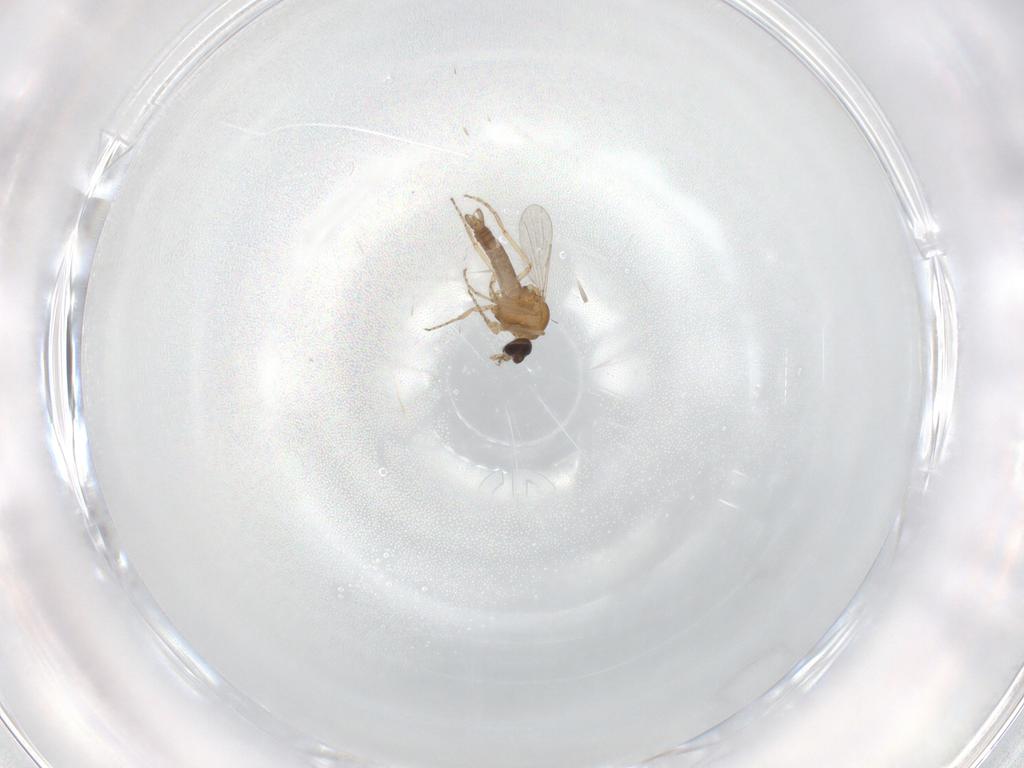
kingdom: Animalia
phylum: Arthropoda
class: Insecta
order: Diptera
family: Ceratopogonidae
